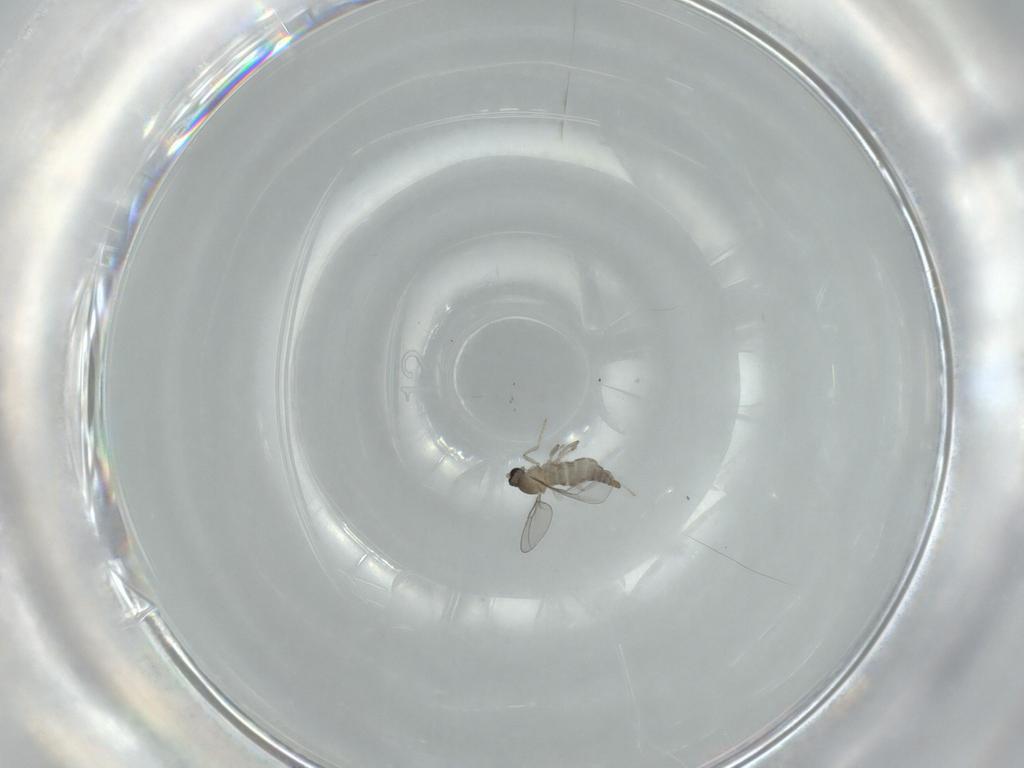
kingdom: Animalia
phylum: Arthropoda
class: Insecta
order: Diptera
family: Cecidomyiidae
